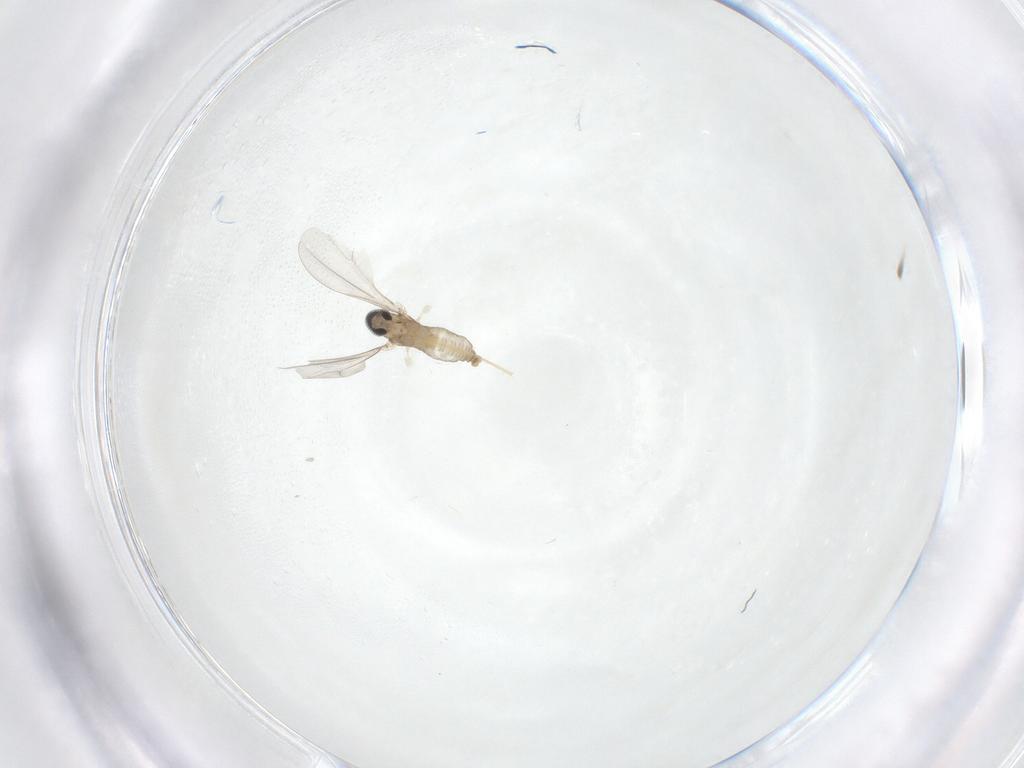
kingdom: Animalia
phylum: Arthropoda
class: Insecta
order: Diptera
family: Cecidomyiidae
